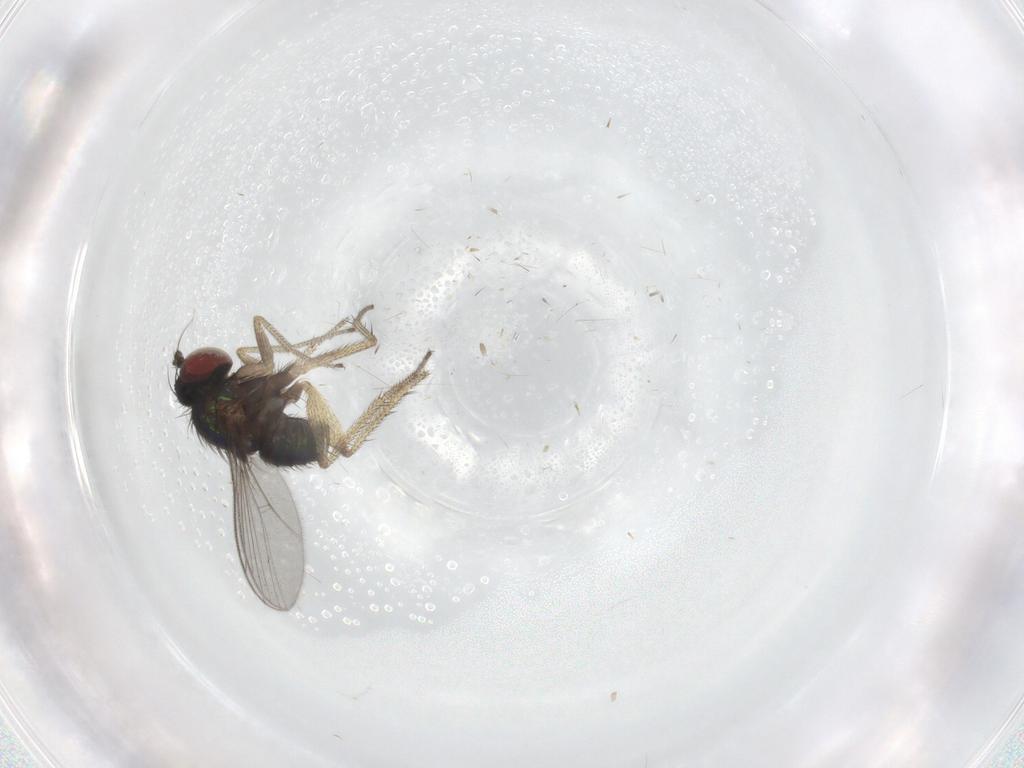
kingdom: Animalia
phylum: Arthropoda
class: Insecta
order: Diptera
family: Dolichopodidae
